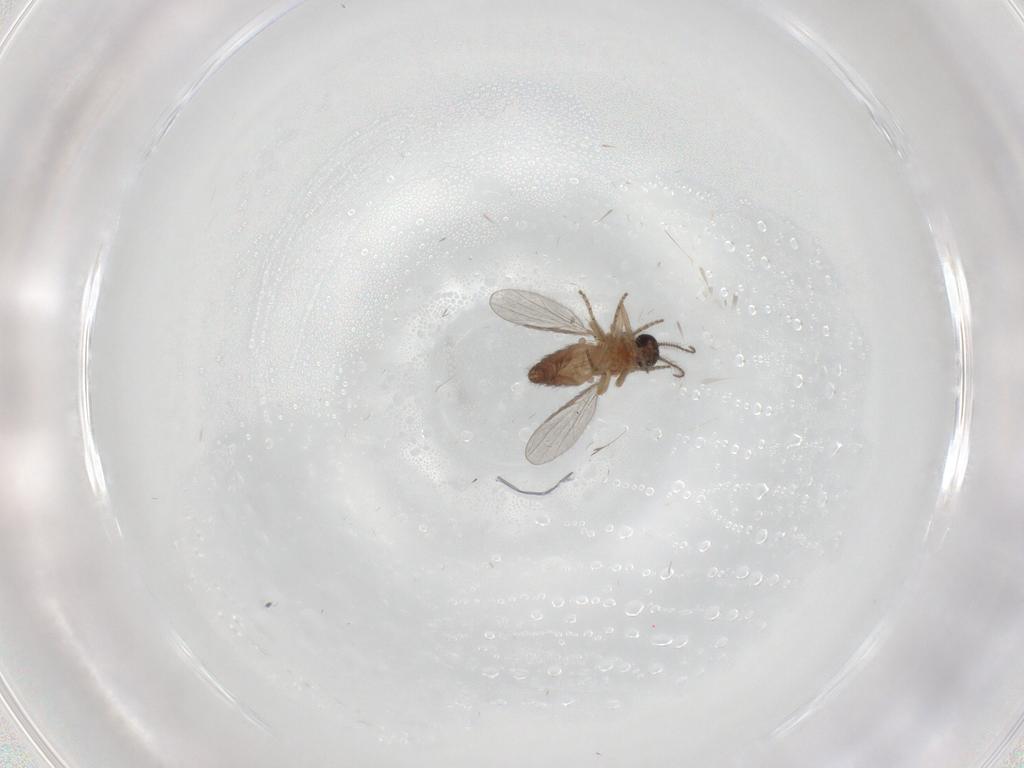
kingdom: Animalia
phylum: Arthropoda
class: Insecta
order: Diptera
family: Ceratopogonidae
